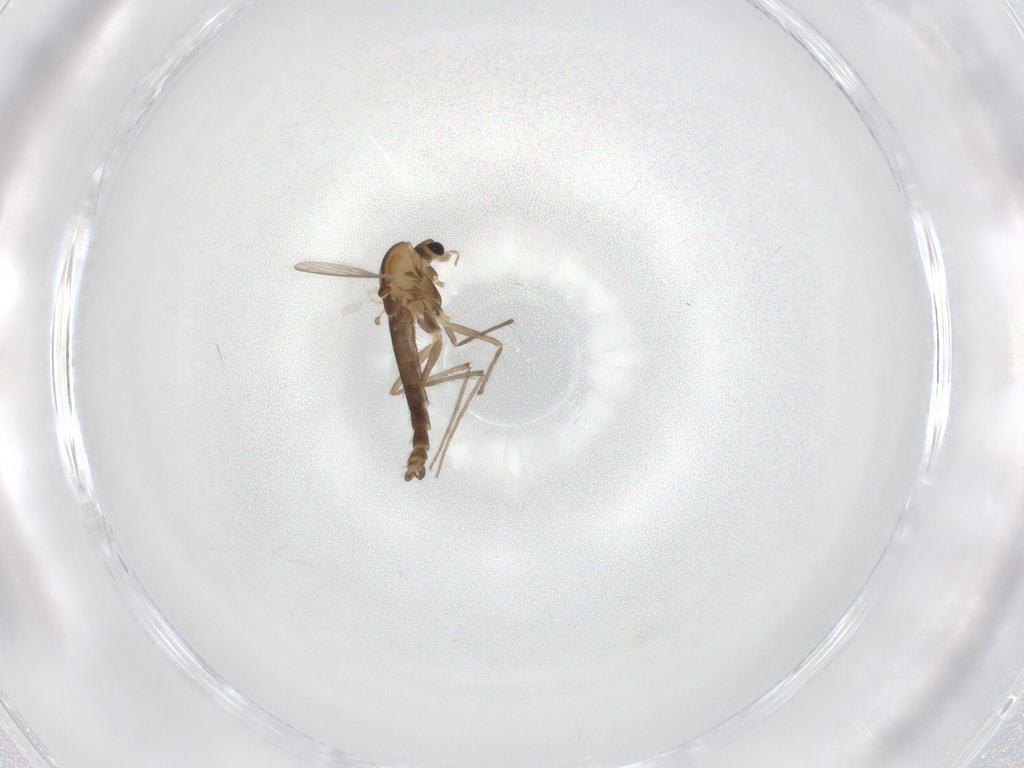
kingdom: Animalia
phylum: Arthropoda
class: Insecta
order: Diptera
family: Chironomidae
